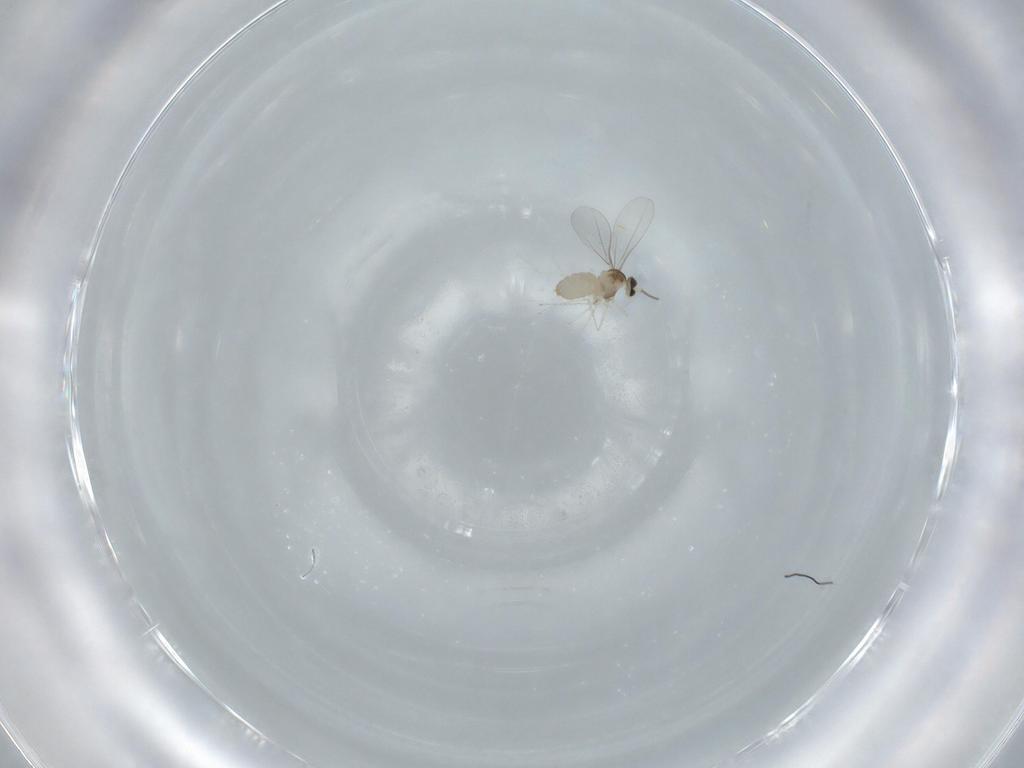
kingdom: Animalia
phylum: Arthropoda
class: Insecta
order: Diptera
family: Cecidomyiidae
